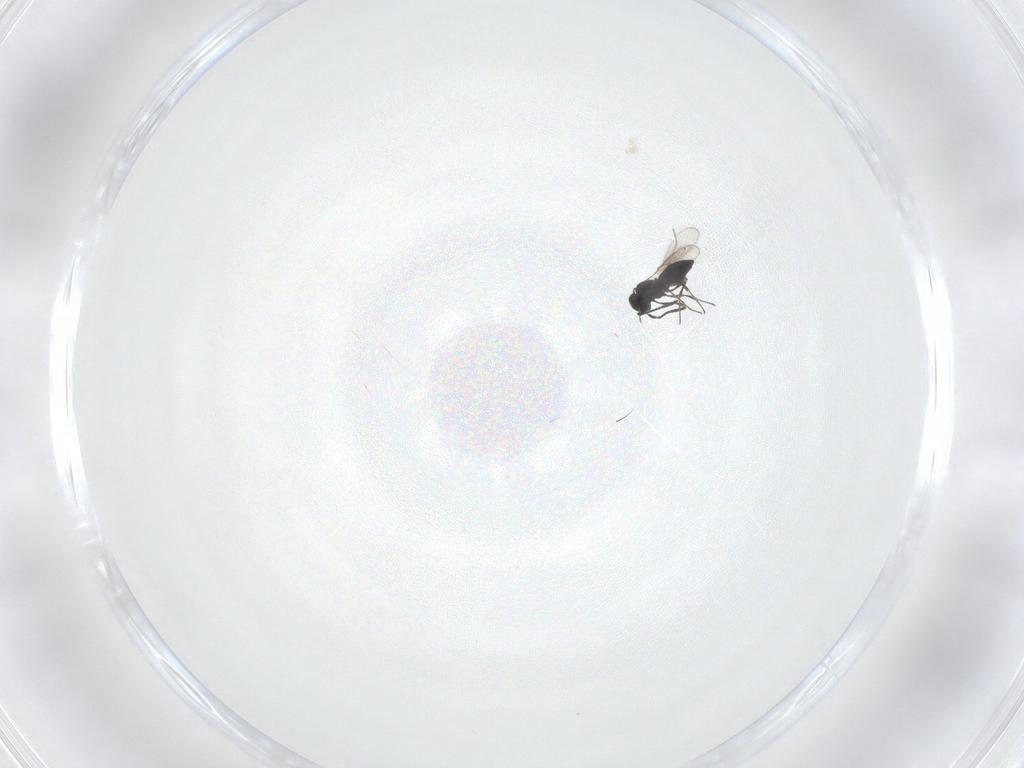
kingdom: Animalia
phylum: Arthropoda
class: Insecta
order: Hymenoptera
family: Scelionidae
